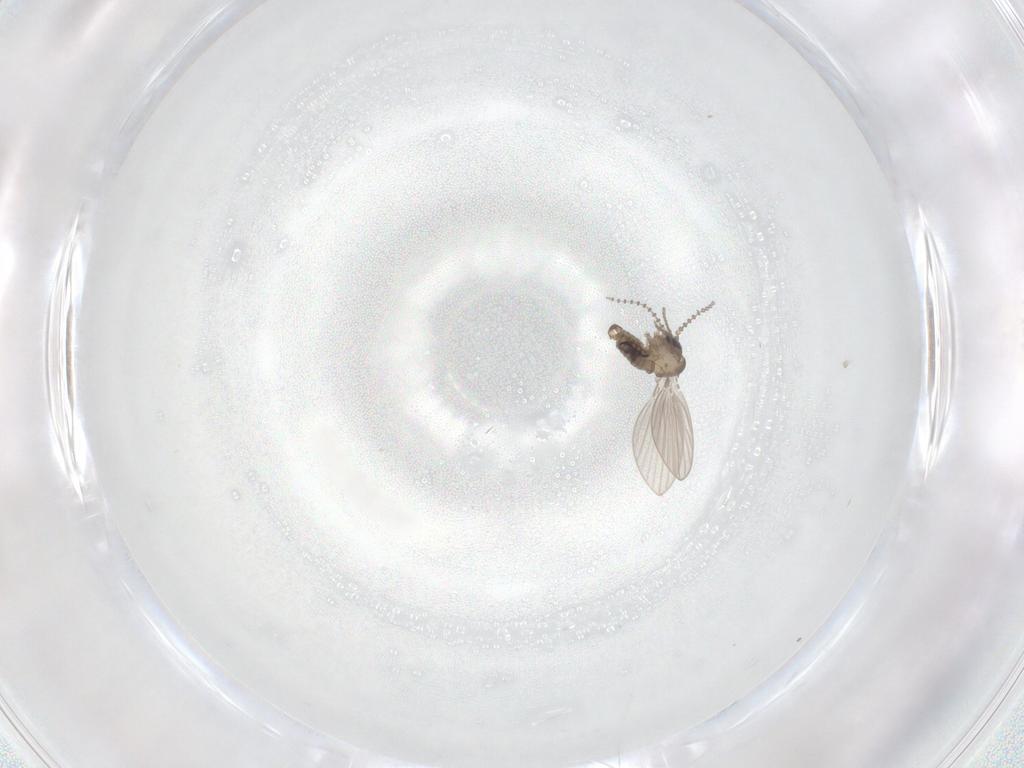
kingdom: Animalia
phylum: Arthropoda
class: Insecta
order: Diptera
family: Psychodidae
